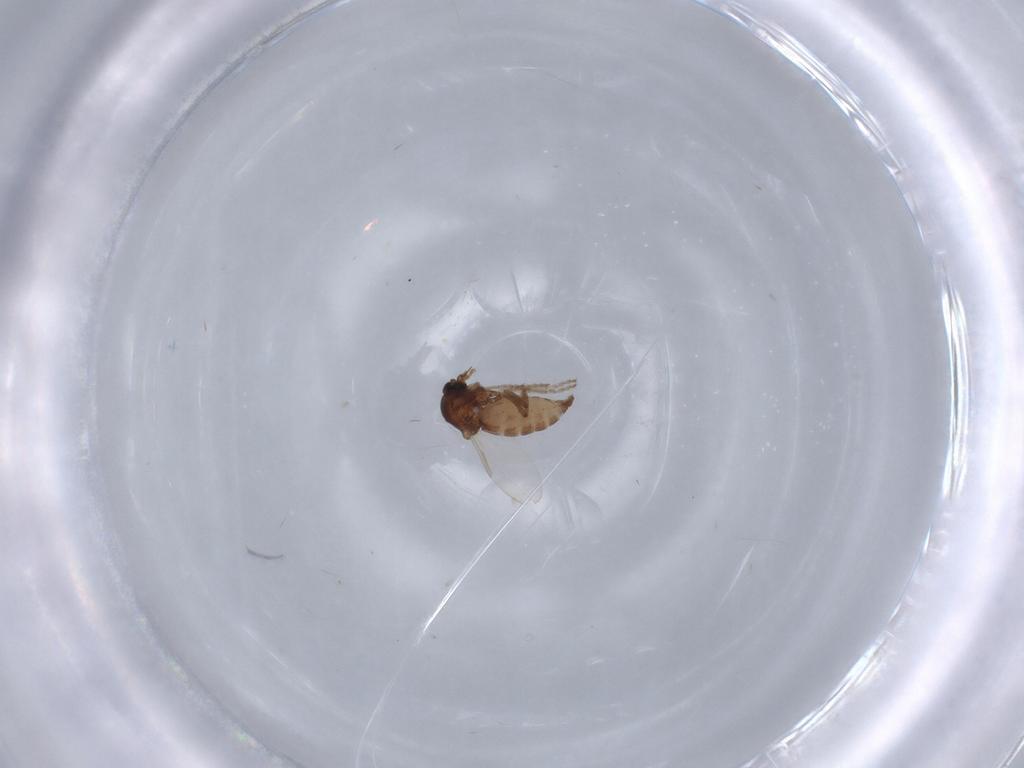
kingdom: Animalia
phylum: Arthropoda
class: Insecta
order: Diptera
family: Ceratopogonidae
